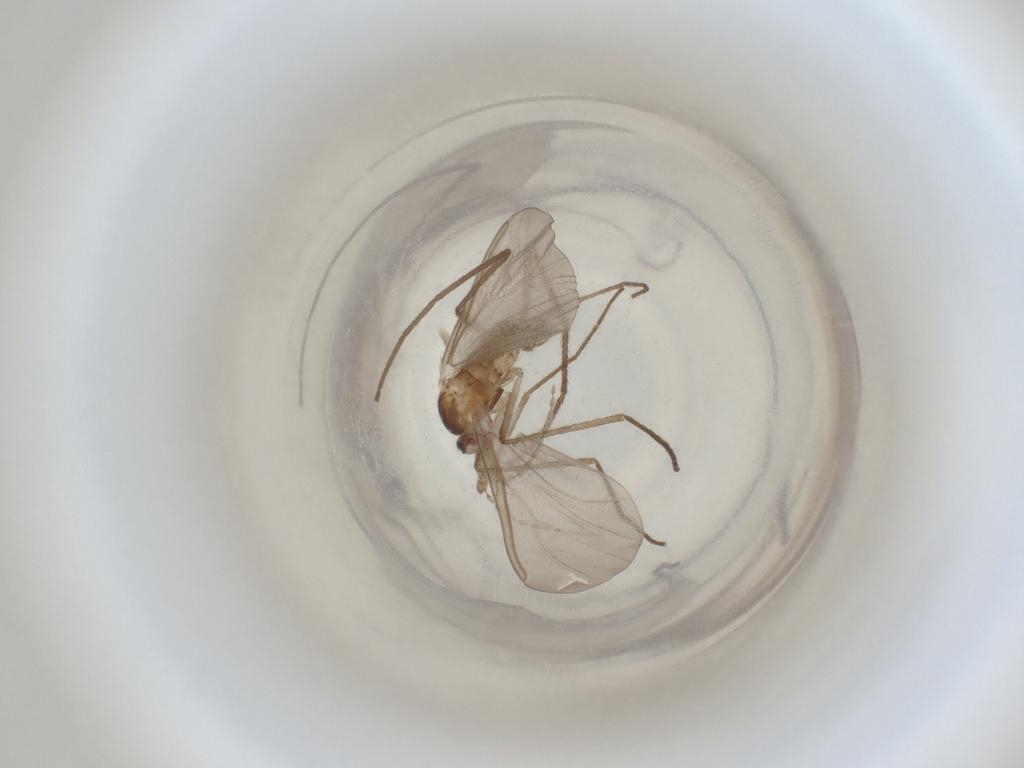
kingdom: Animalia
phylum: Arthropoda
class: Insecta
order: Diptera
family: Cecidomyiidae
